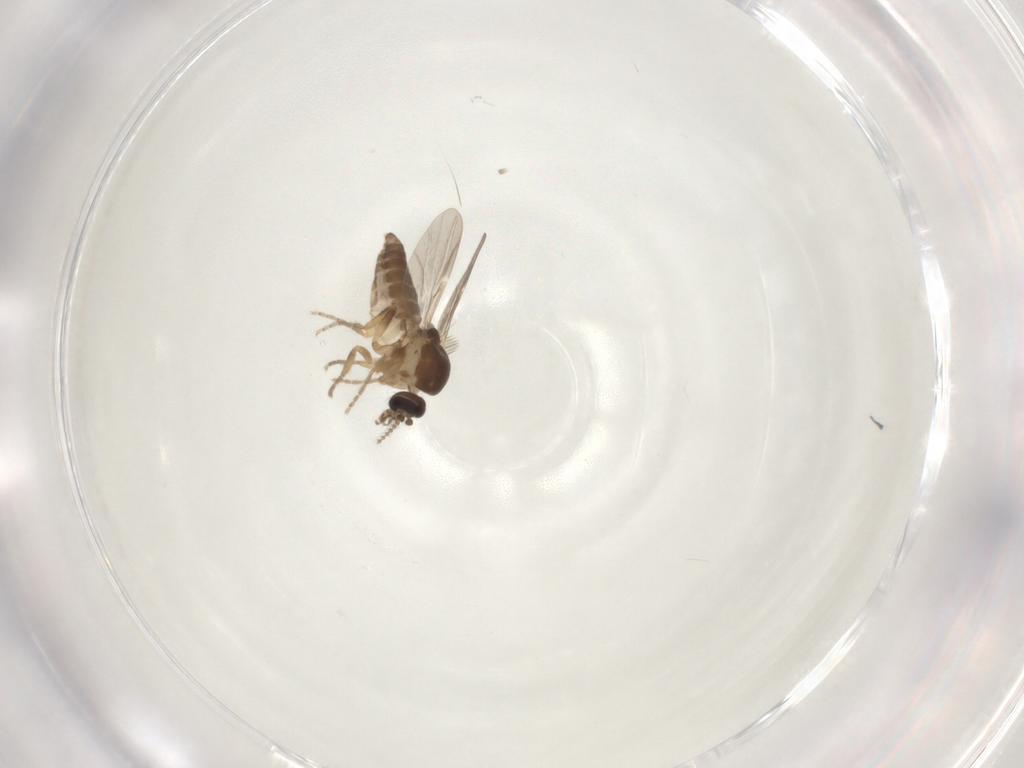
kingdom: Animalia
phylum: Arthropoda
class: Insecta
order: Diptera
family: Ceratopogonidae
